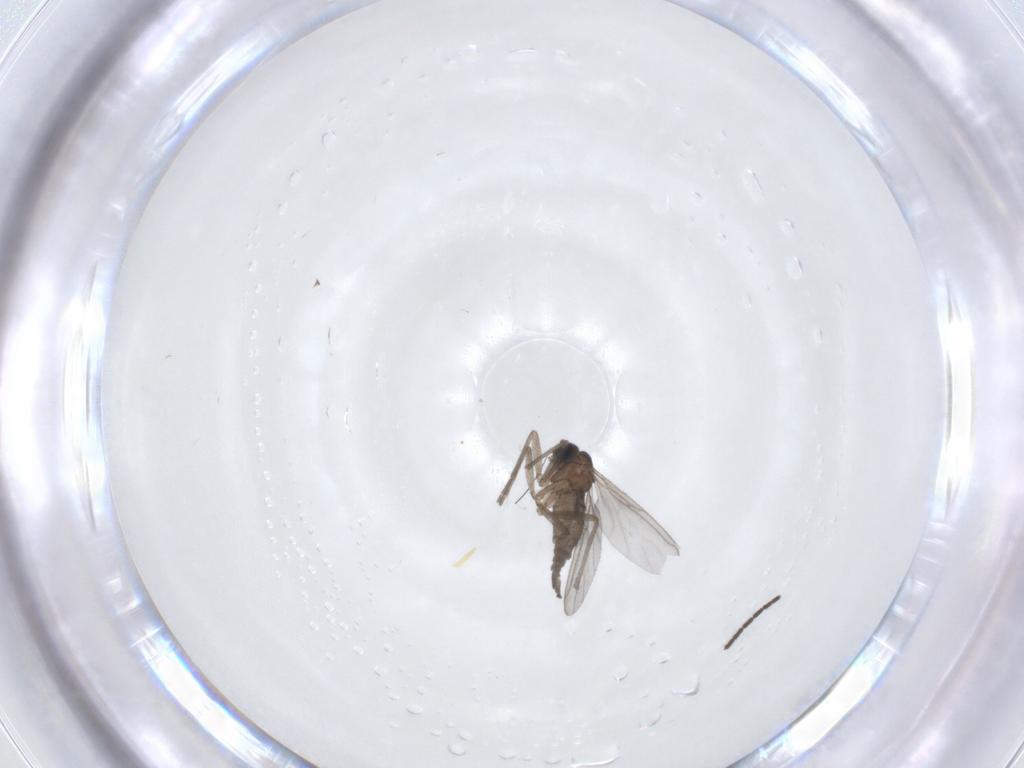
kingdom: Animalia
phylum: Arthropoda
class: Insecta
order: Diptera
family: Sciaridae
